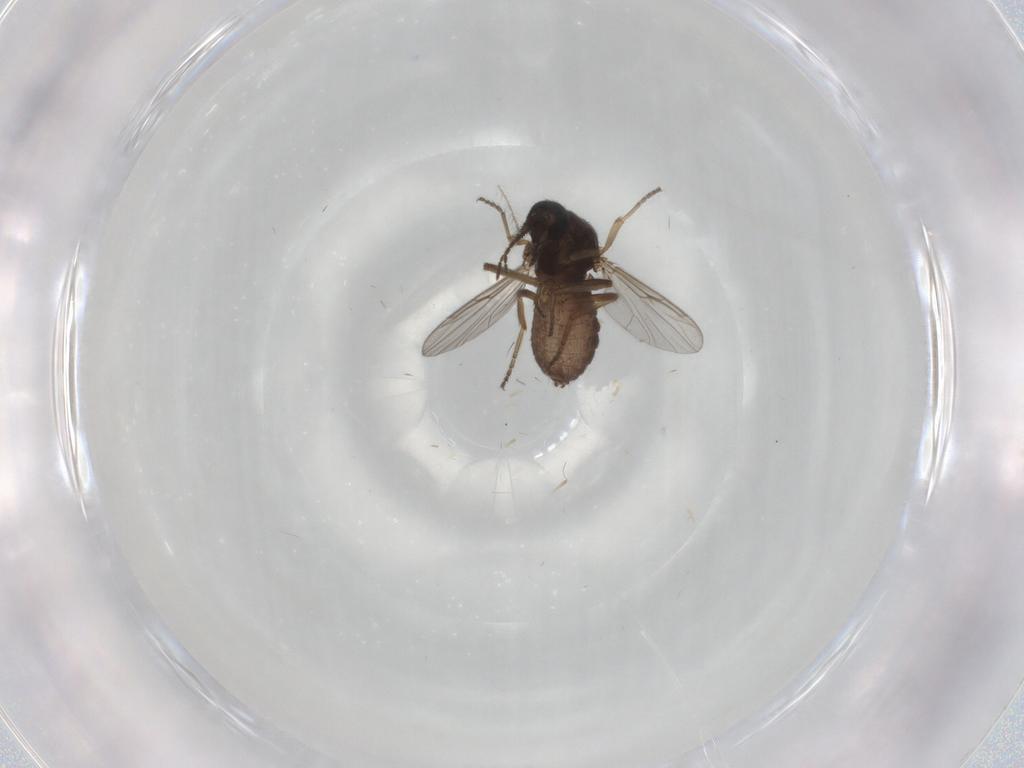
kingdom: Animalia
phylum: Arthropoda
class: Insecta
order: Diptera
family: Ceratopogonidae
